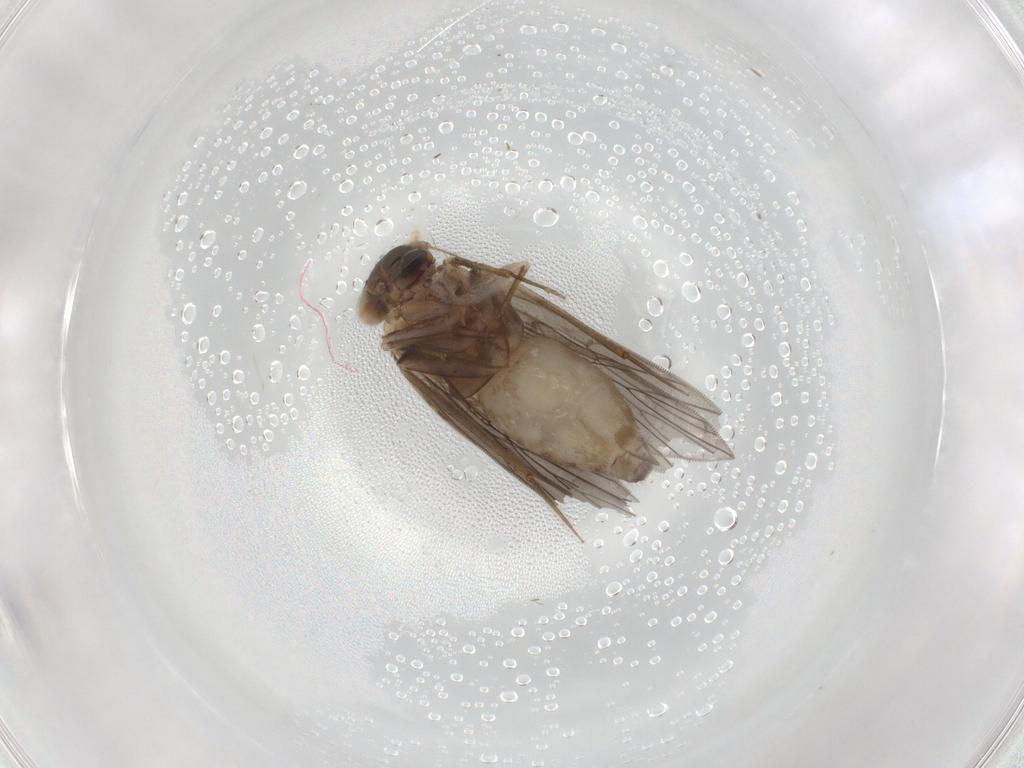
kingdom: Animalia
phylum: Arthropoda
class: Insecta
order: Psocodea
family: Lepidopsocidae
